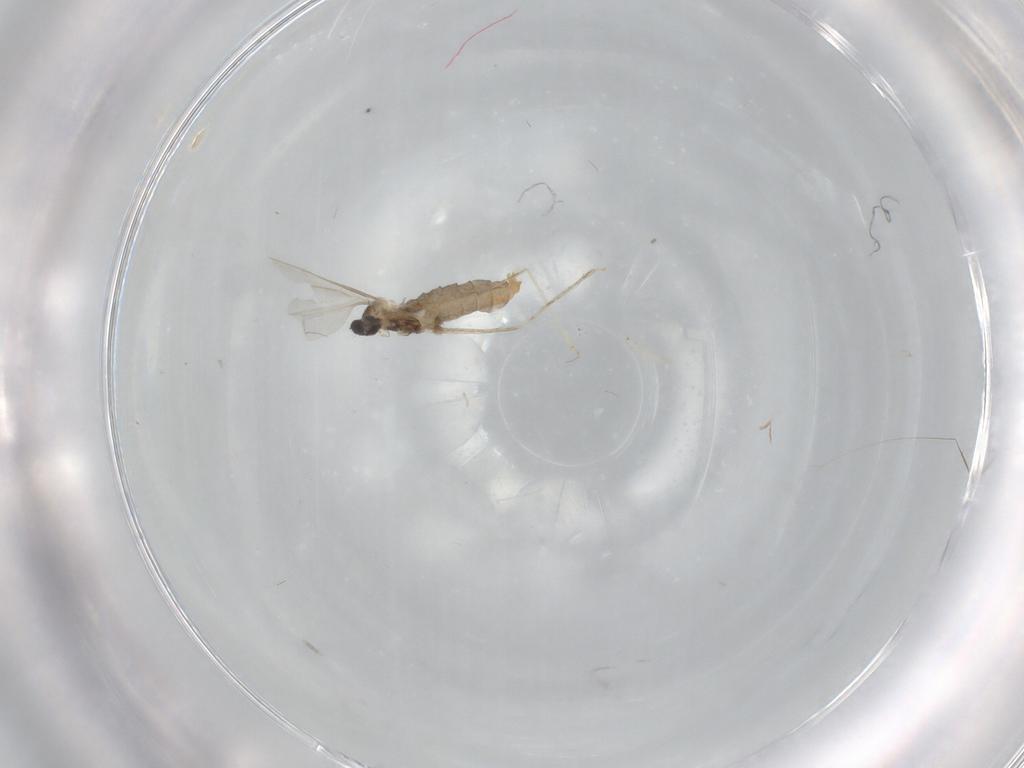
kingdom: Animalia
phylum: Arthropoda
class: Insecta
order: Diptera
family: Cecidomyiidae
